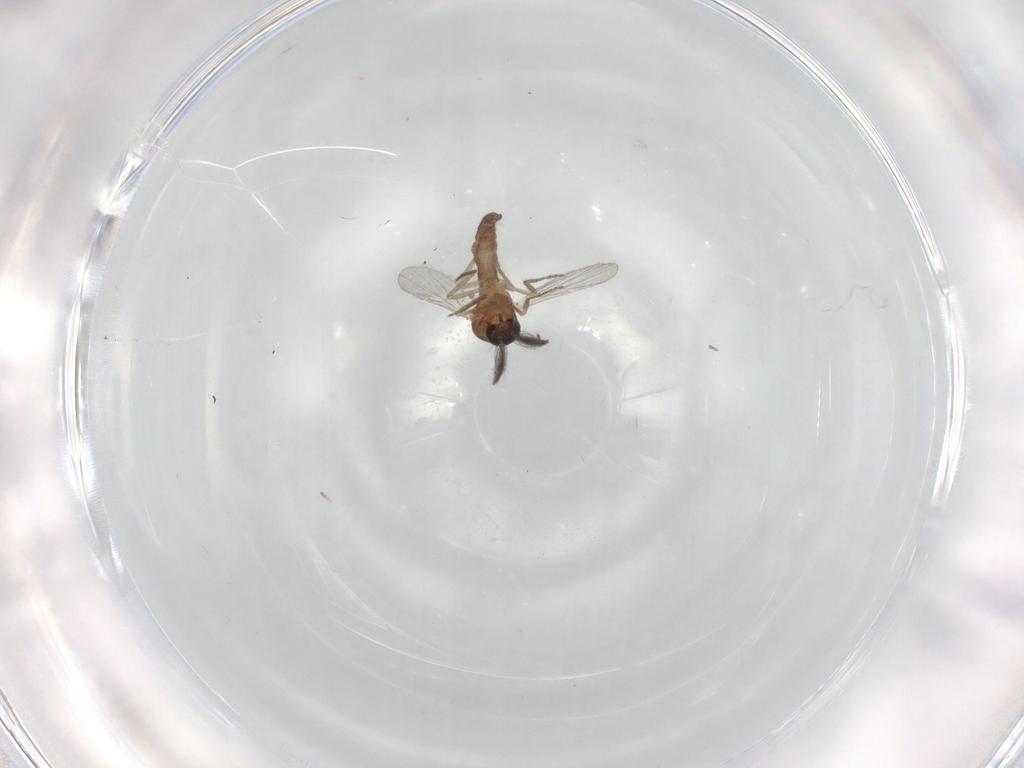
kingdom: Animalia
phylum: Arthropoda
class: Insecta
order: Diptera
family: Ceratopogonidae
